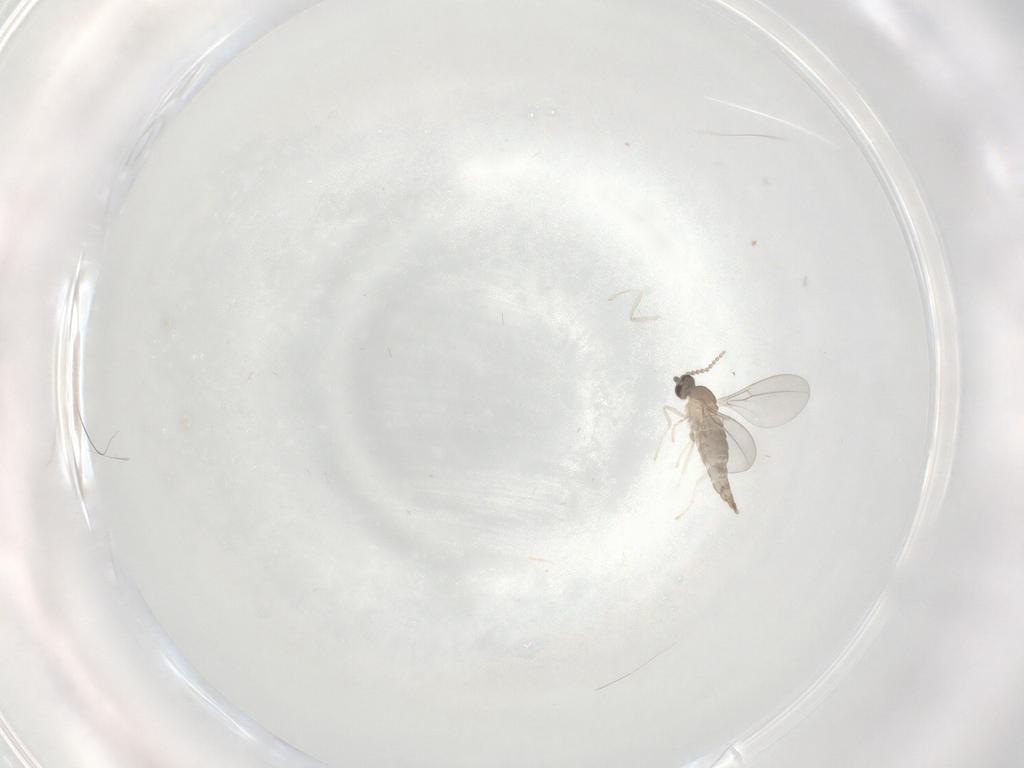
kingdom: Animalia
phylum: Arthropoda
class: Insecta
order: Diptera
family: Cecidomyiidae
